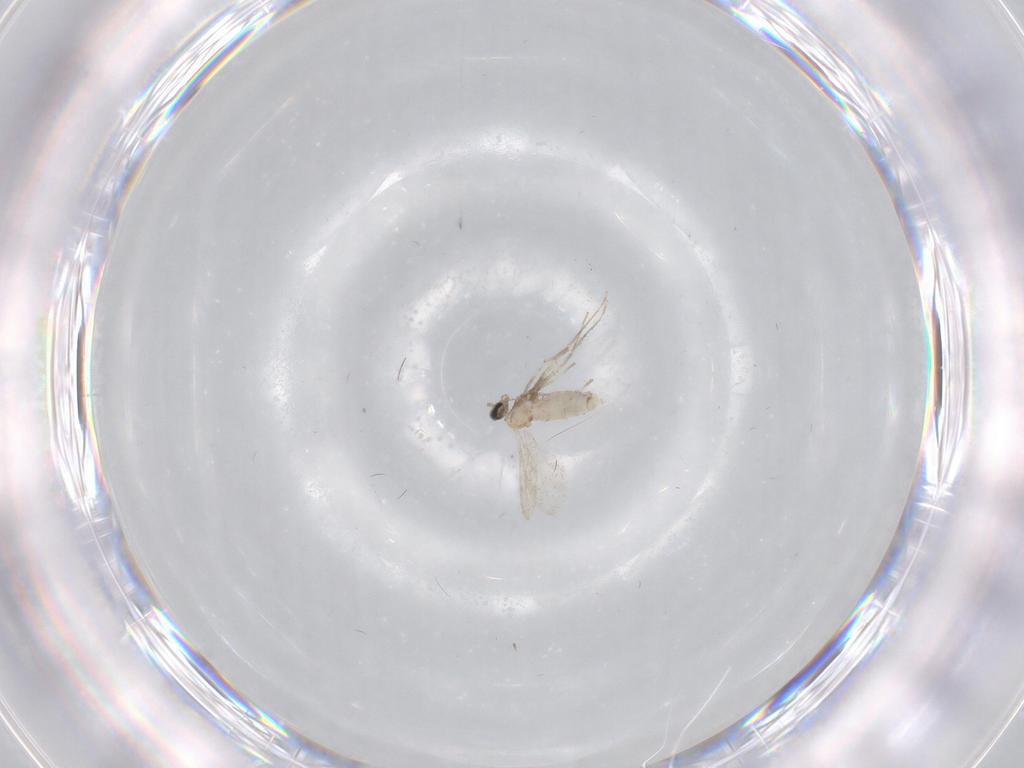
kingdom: Animalia
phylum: Arthropoda
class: Insecta
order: Diptera
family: Cecidomyiidae
